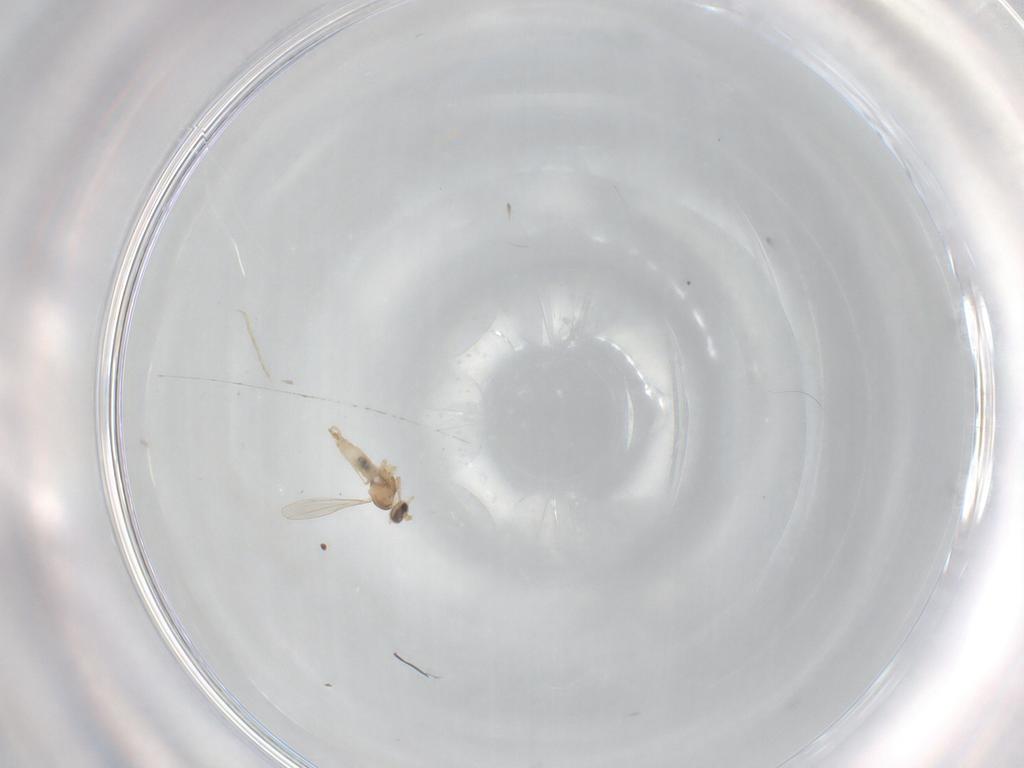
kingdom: Animalia
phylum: Arthropoda
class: Insecta
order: Diptera
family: Cecidomyiidae
